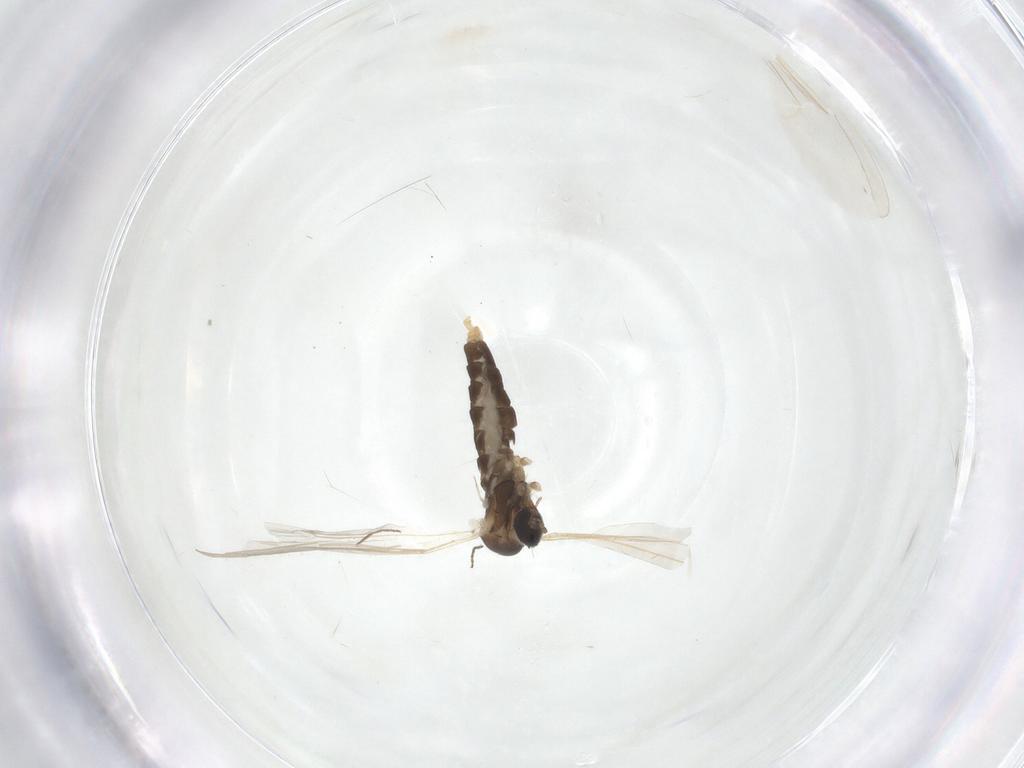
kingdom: Animalia
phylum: Arthropoda
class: Insecta
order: Diptera
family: Cecidomyiidae
